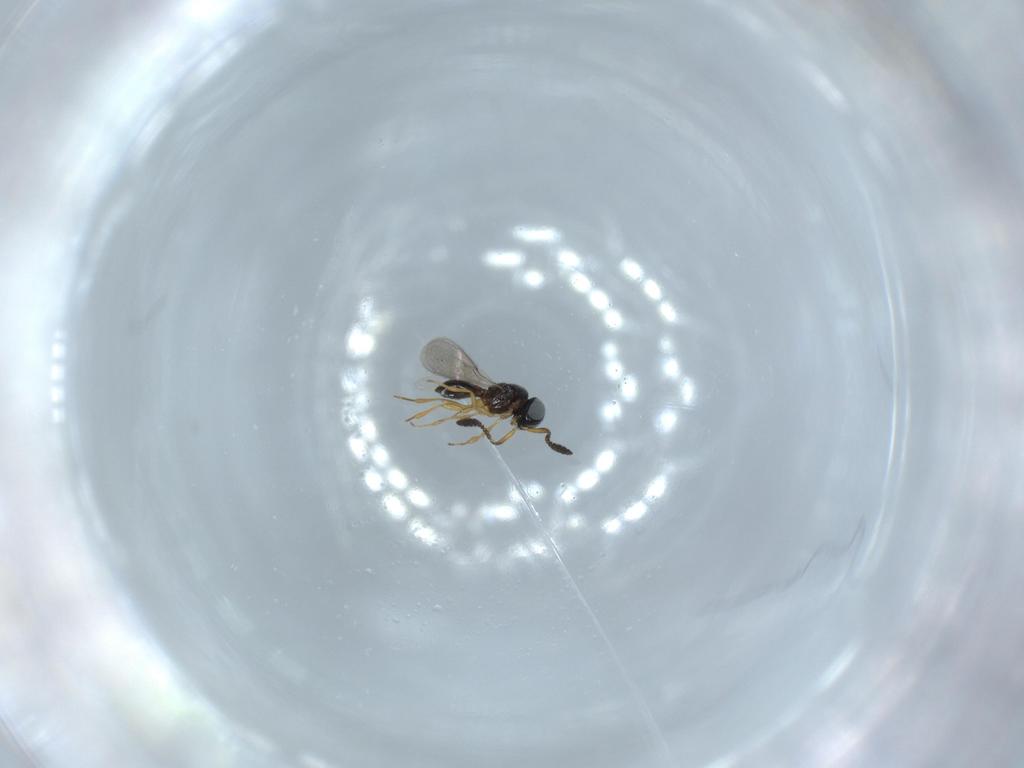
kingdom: Animalia
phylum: Arthropoda
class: Insecta
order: Hymenoptera
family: Scelionidae
